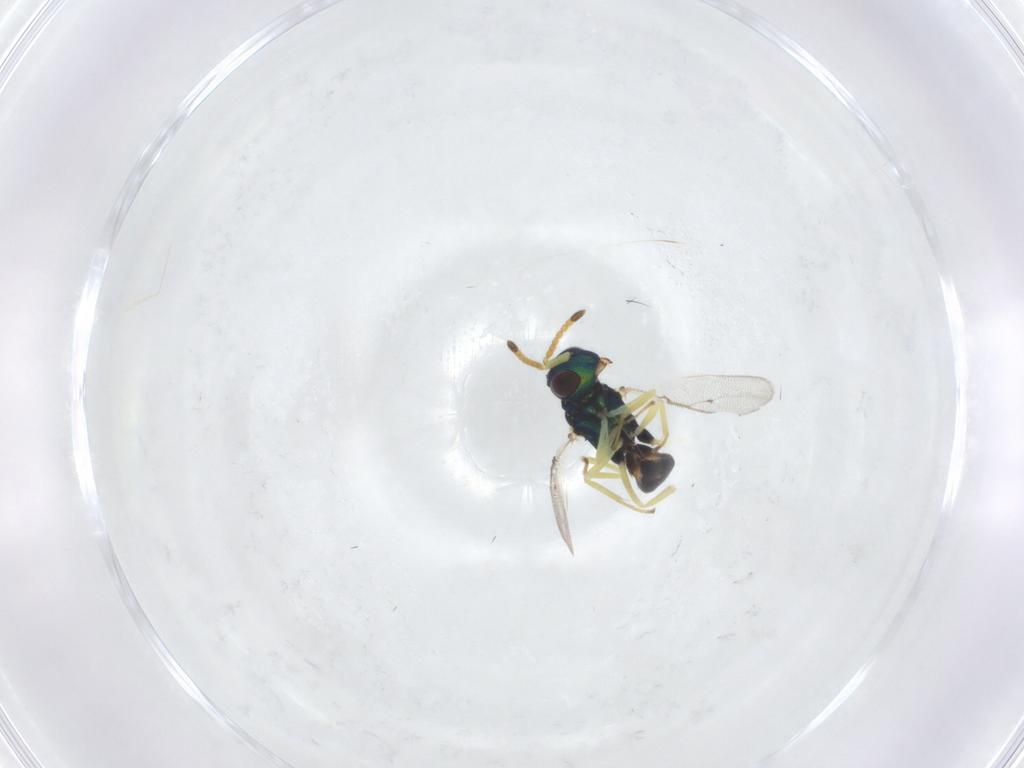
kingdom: Animalia
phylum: Arthropoda
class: Insecta
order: Hymenoptera
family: Pteromalidae
